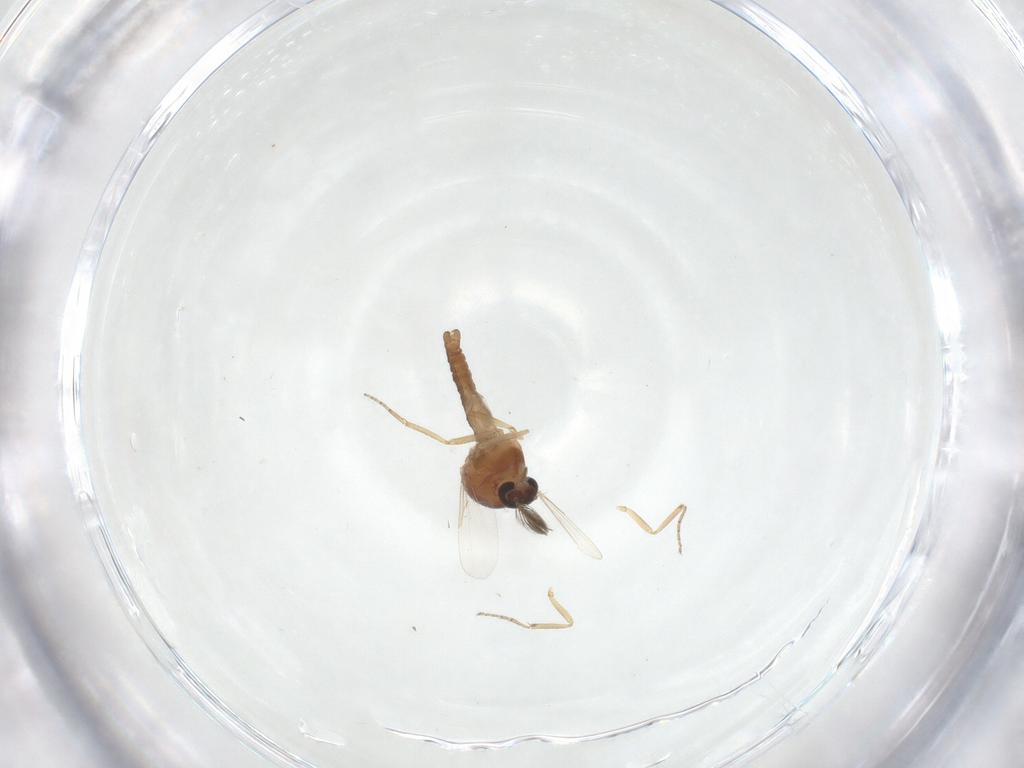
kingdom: Animalia
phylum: Arthropoda
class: Insecta
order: Diptera
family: Ceratopogonidae
